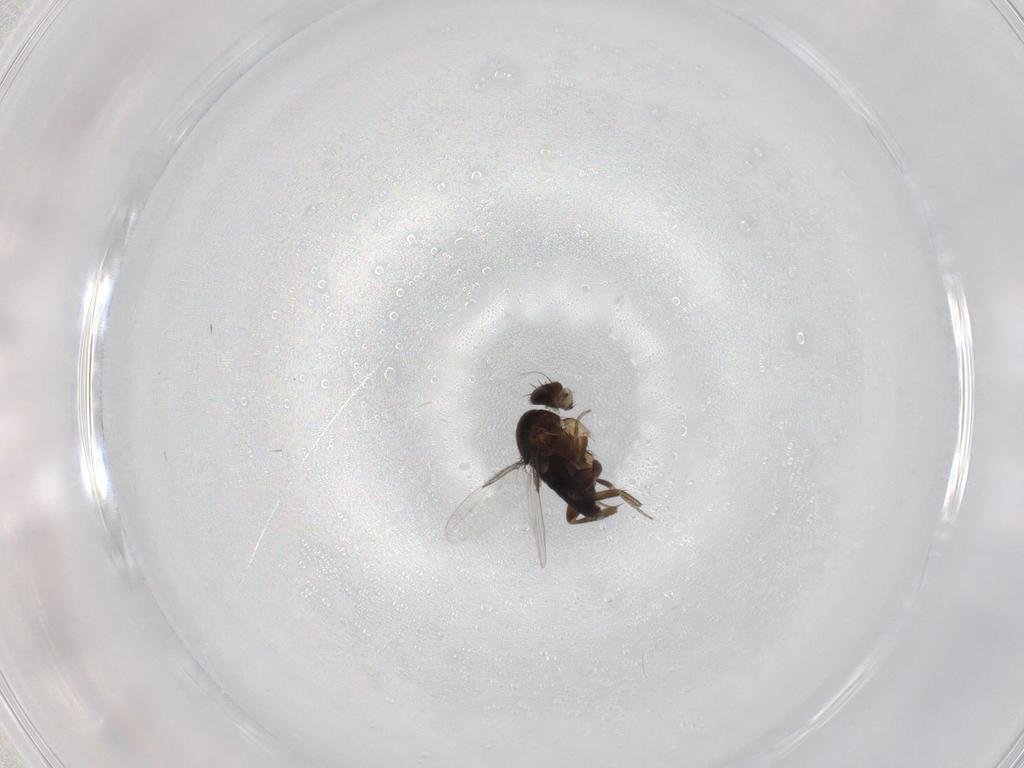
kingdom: Animalia
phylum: Arthropoda
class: Insecta
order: Diptera
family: Phoridae
